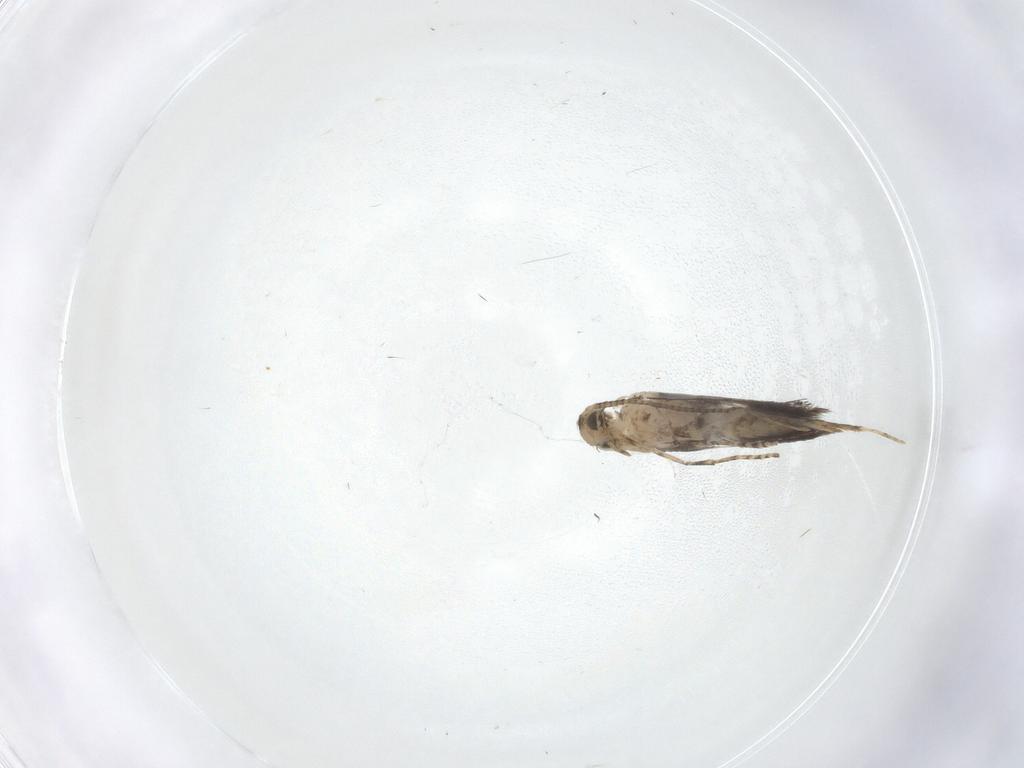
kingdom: Animalia
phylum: Arthropoda
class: Insecta
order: Lepidoptera
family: Gracillariidae
